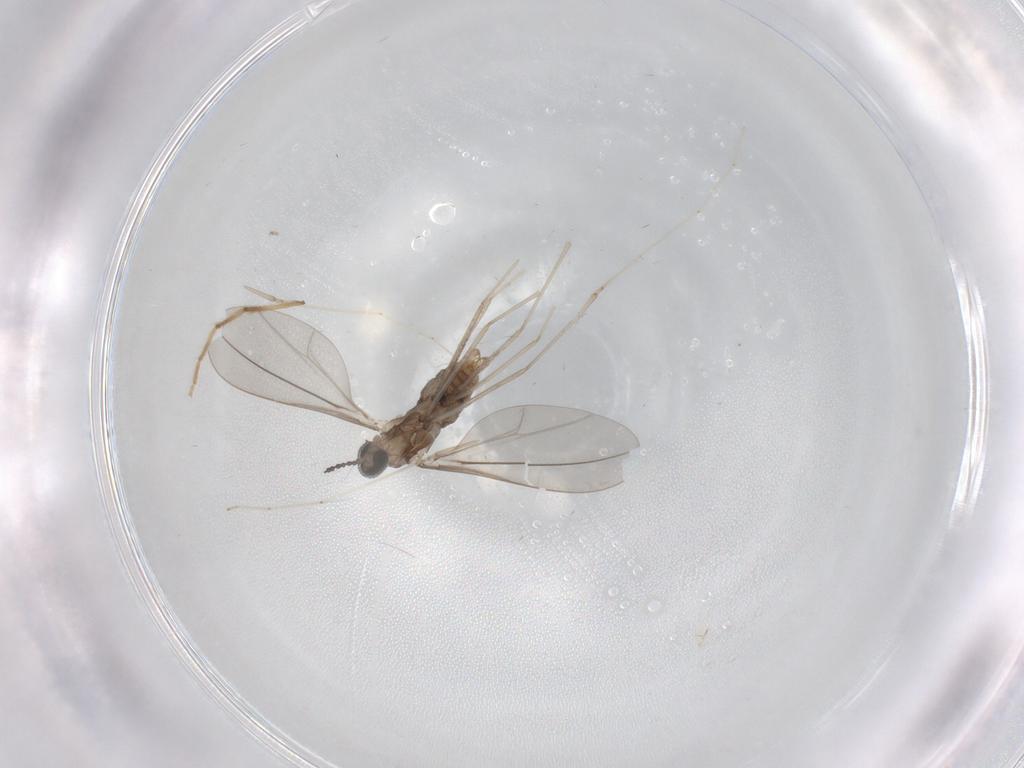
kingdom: Animalia
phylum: Arthropoda
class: Insecta
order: Diptera
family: Cecidomyiidae
